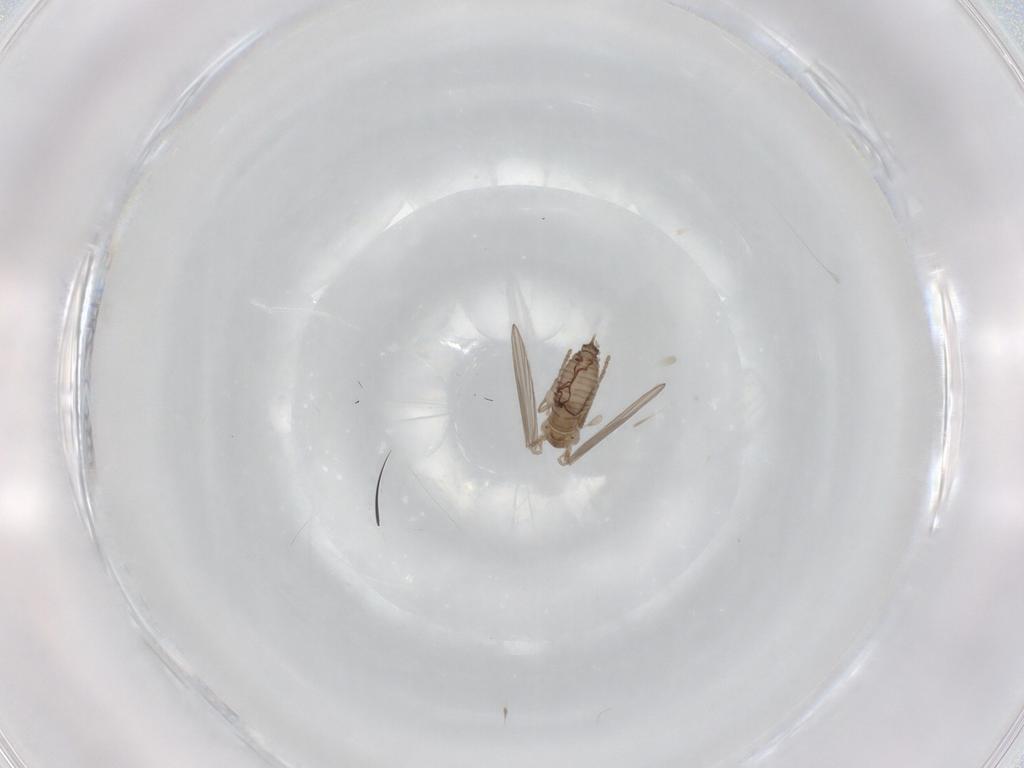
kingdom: Animalia
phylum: Arthropoda
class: Insecta
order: Diptera
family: Psychodidae
